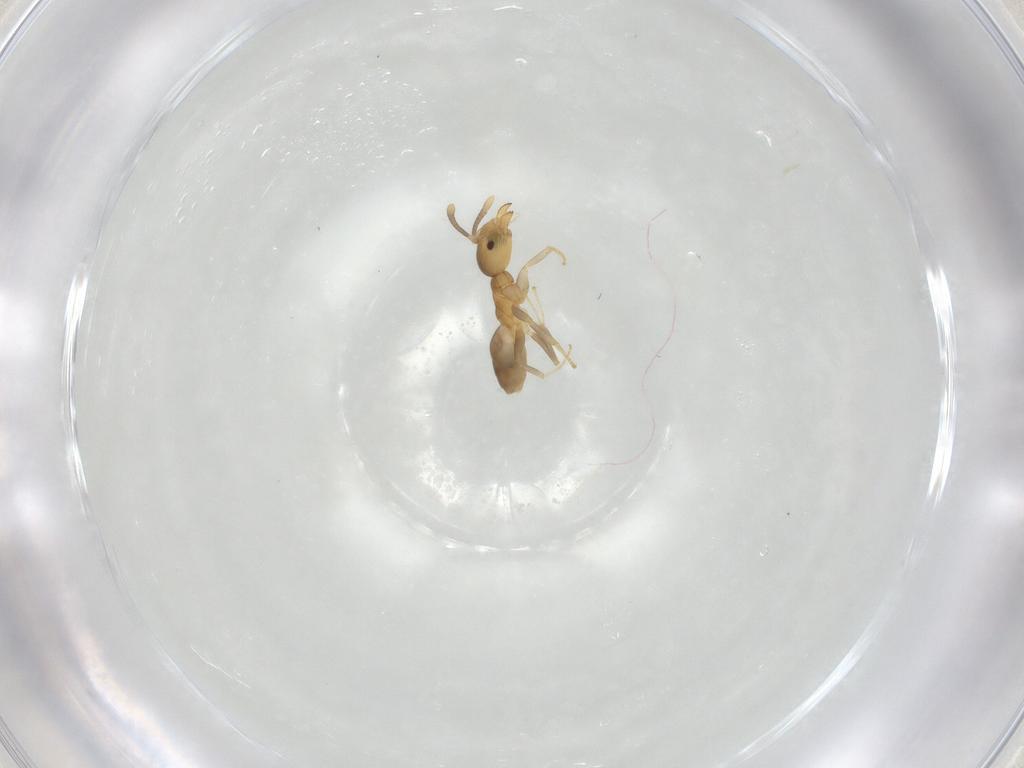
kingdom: Animalia
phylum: Arthropoda
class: Insecta
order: Hymenoptera
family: Formicidae
